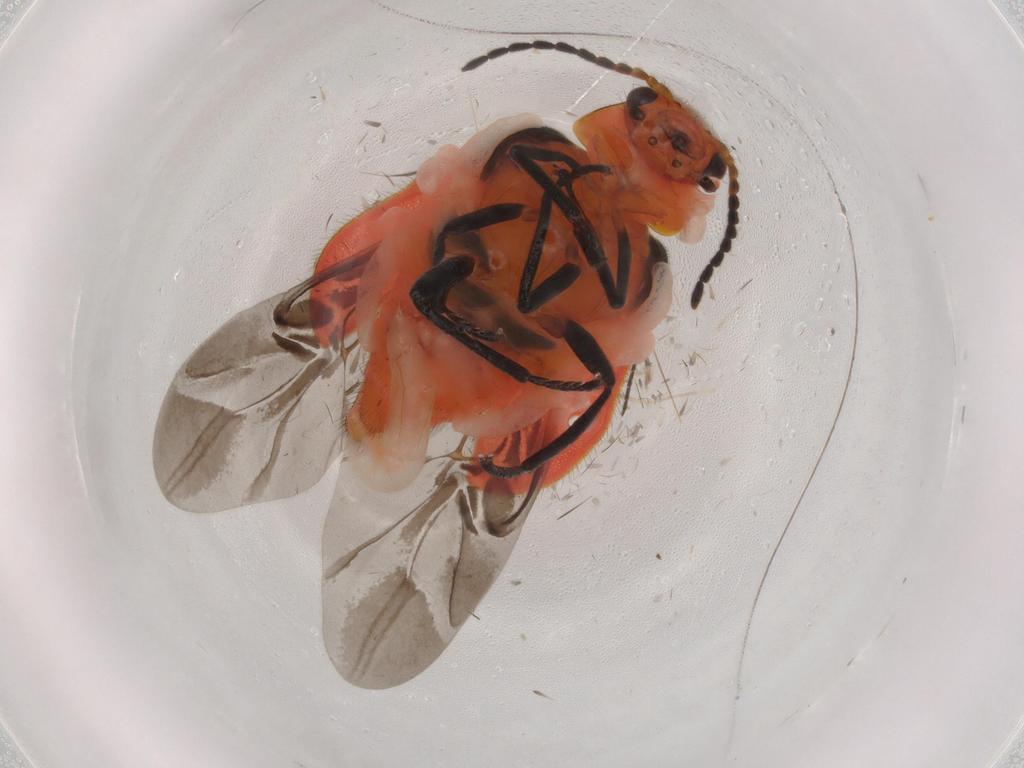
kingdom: Animalia
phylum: Arthropoda
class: Insecta
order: Coleoptera
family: Melyridae
